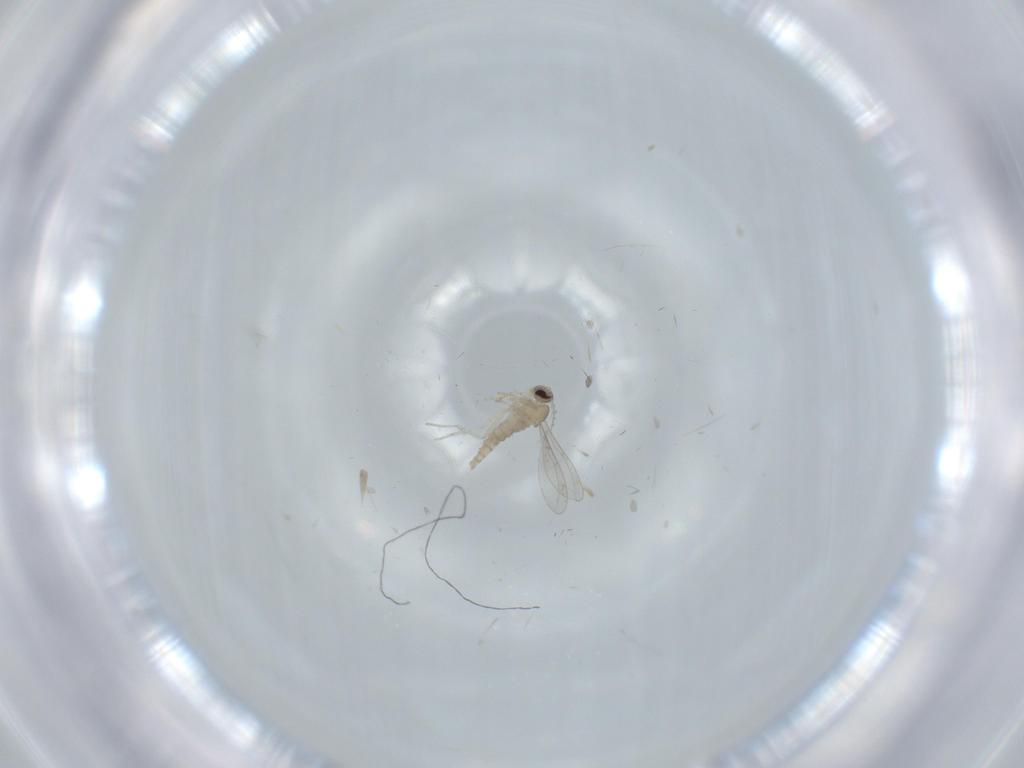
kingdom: Animalia
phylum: Arthropoda
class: Insecta
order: Diptera
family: Cecidomyiidae
